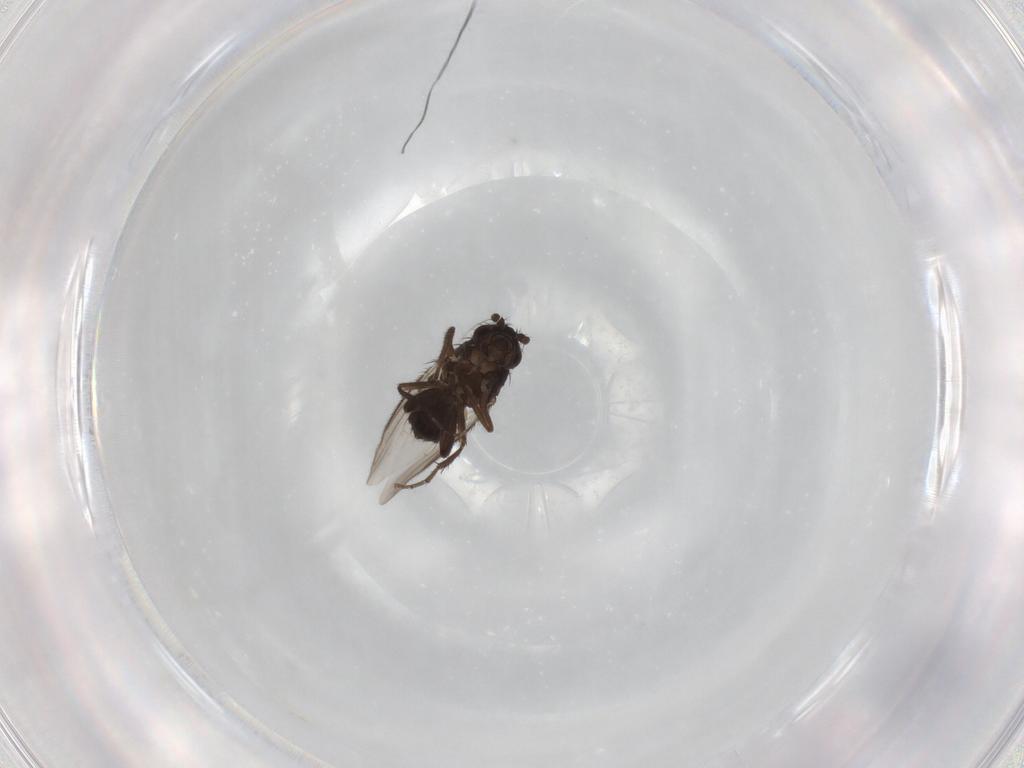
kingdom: Animalia
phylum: Arthropoda
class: Insecta
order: Diptera
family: Sphaeroceridae
